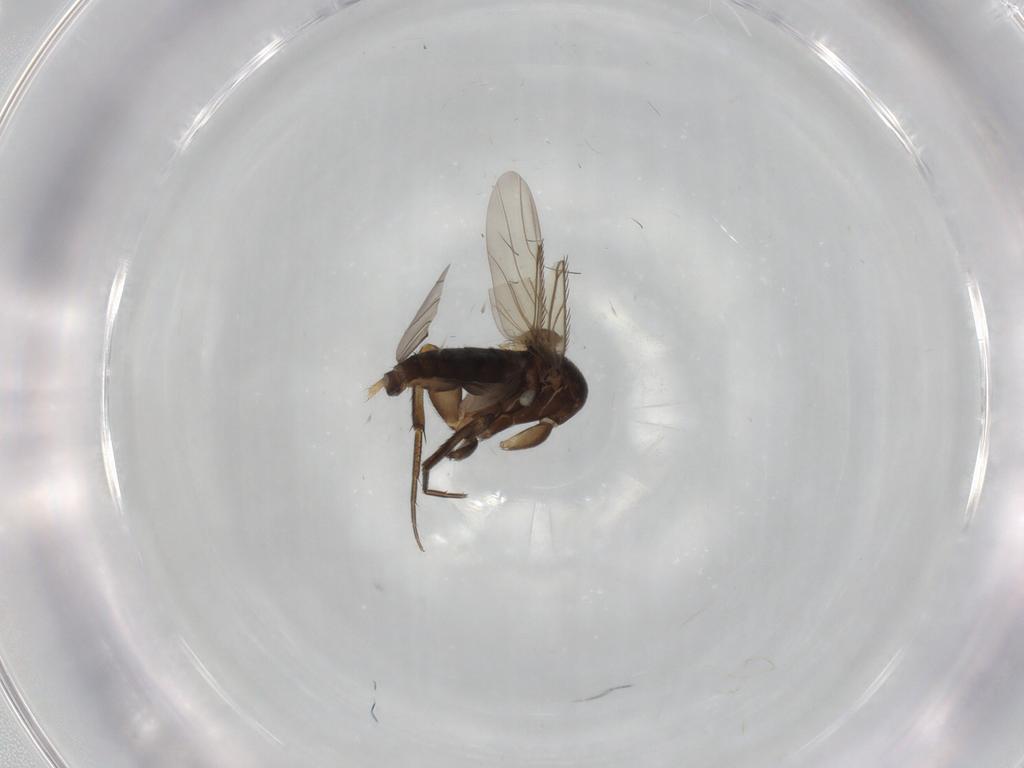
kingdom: Animalia
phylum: Arthropoda
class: Insecta
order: Diptera
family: Phoridae
